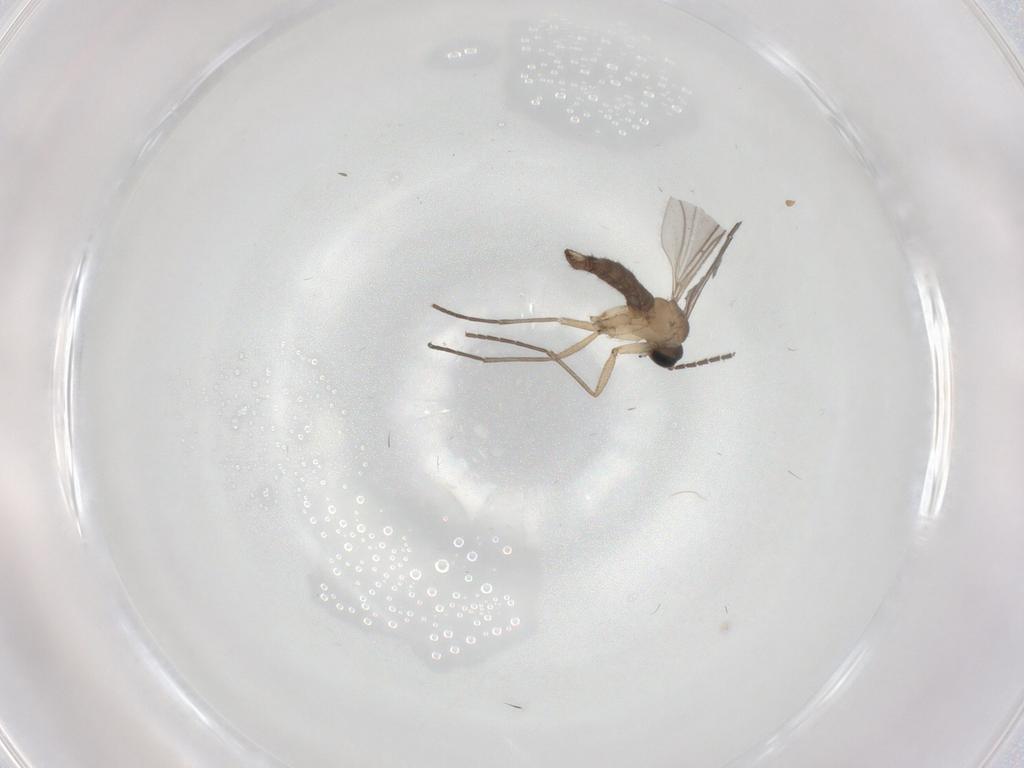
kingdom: Animalia
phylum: Arthropoda
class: Insecta
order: Diptera
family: Sciaridae
